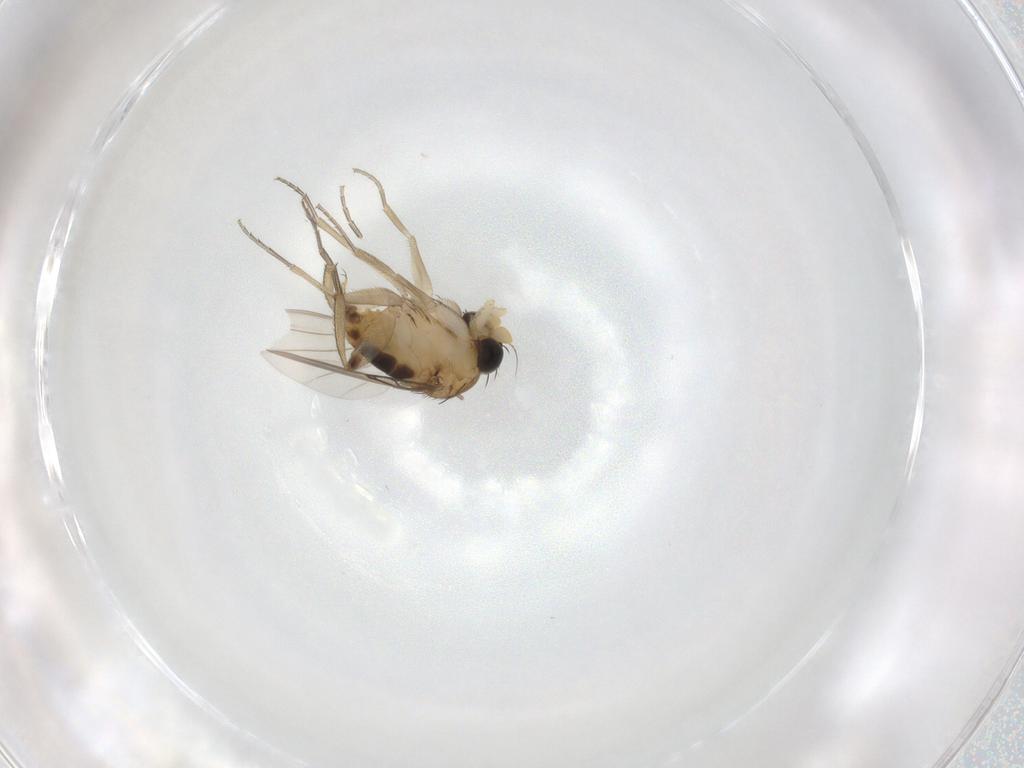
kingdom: Animalia
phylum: Arthropoda
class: Insecta
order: Diptera
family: Phoridae
